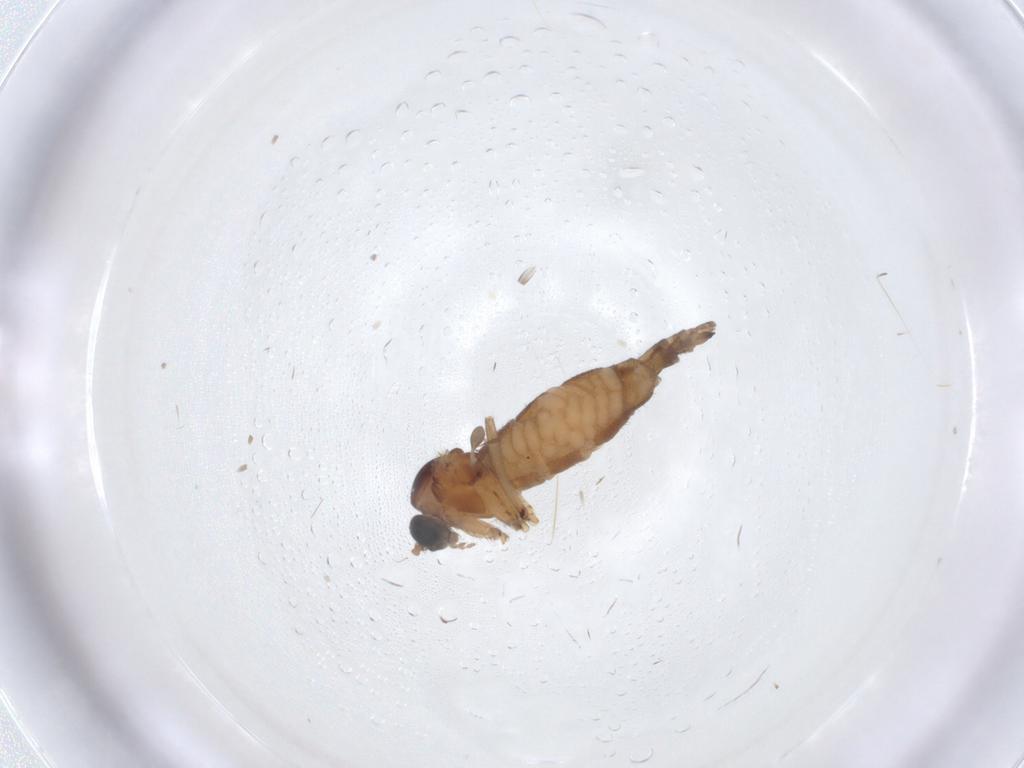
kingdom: Animalia
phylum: Arthropoda
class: Insecta
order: Diptera
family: Sciaridae
